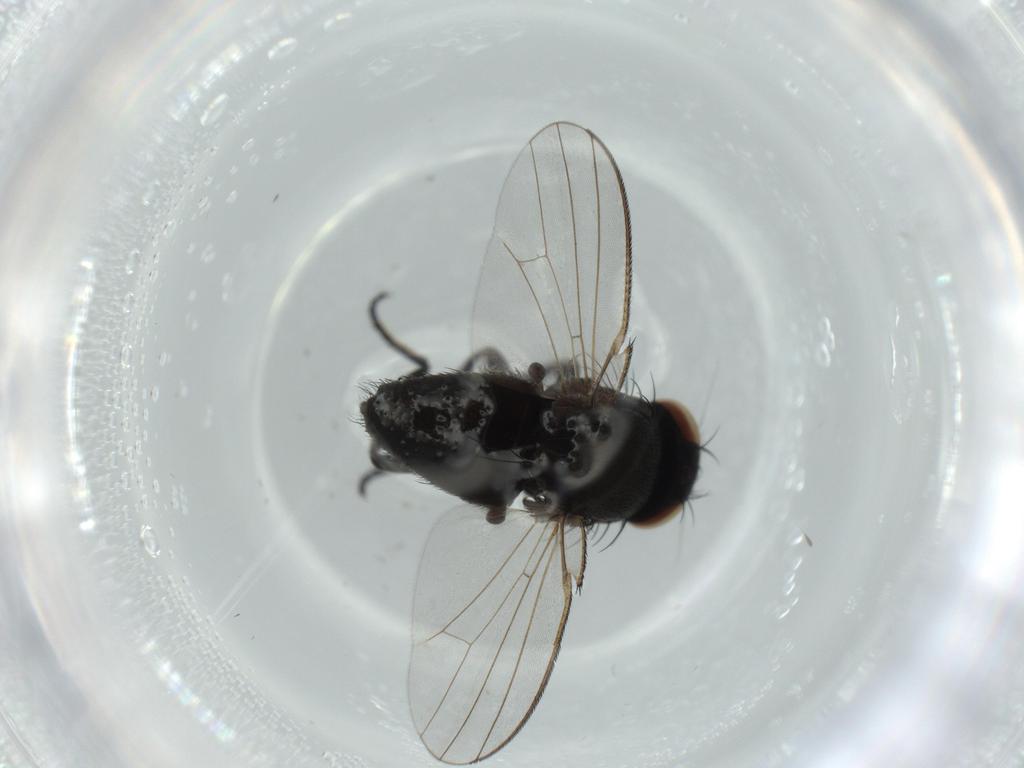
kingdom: Animalia
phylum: Arthropoda
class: Insecta
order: Diptera
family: Milichiidae
